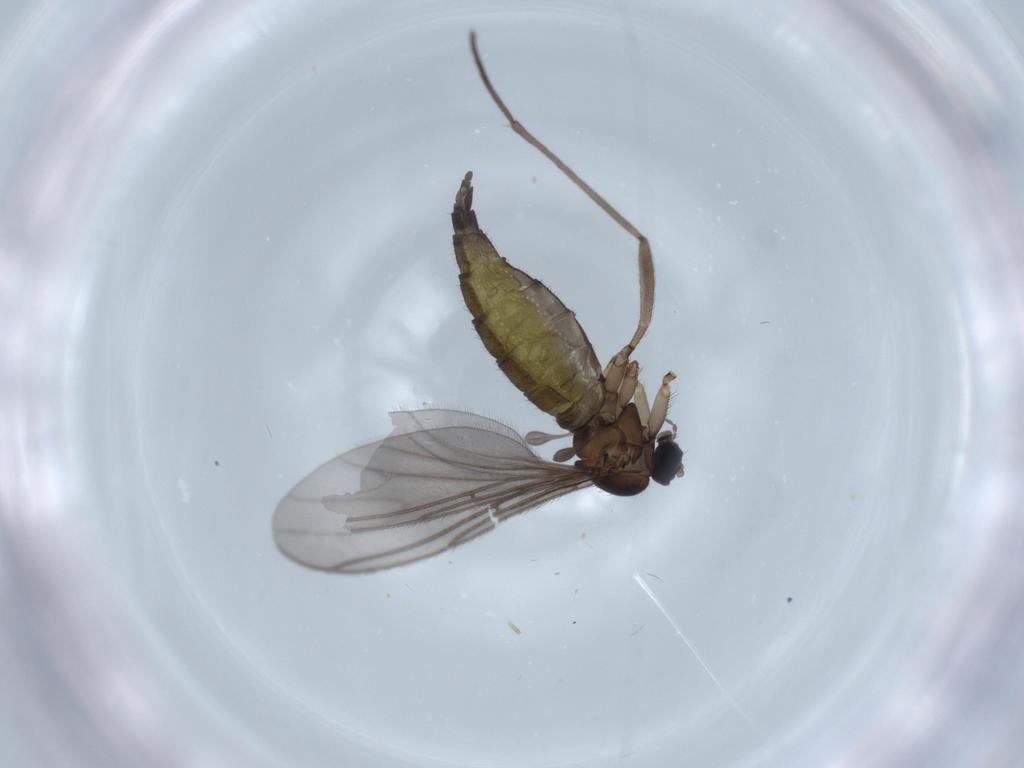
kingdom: Animalia
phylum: Arthropoda
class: Insecta
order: Diptera
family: Sciaridae
